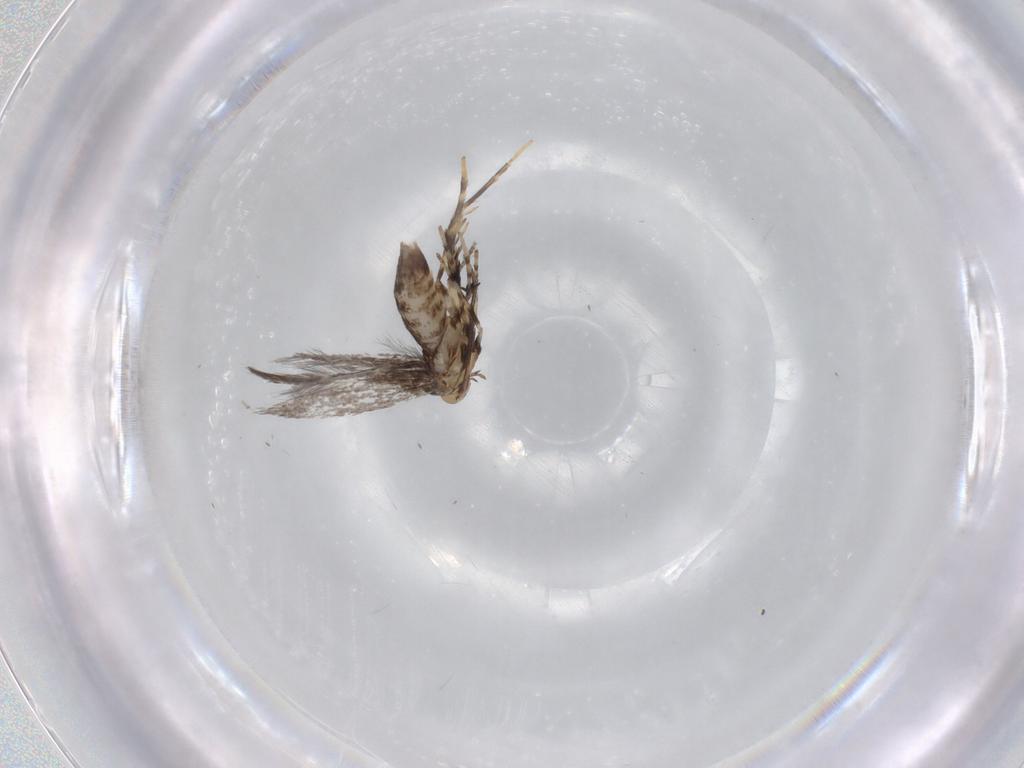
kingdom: Animalia
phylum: Arthropoda
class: Insecta
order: Lepidoptera
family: Gracillariidae
